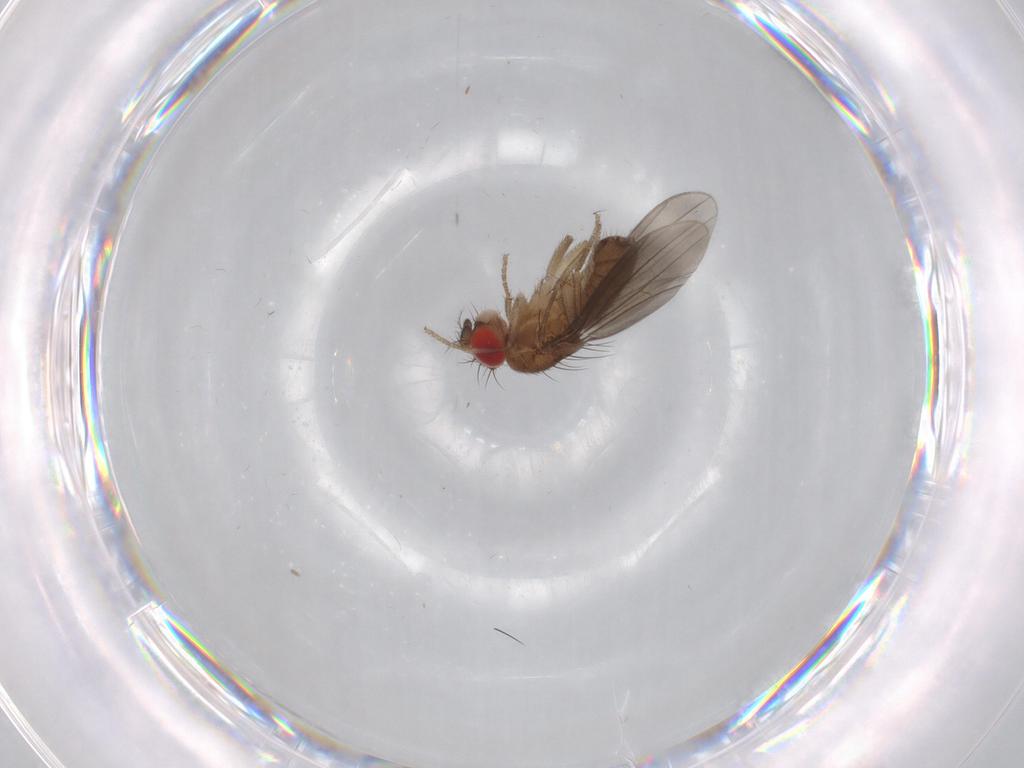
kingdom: Animalia
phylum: Arthropoda
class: Insecta
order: Diptera
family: Drosophilidae
